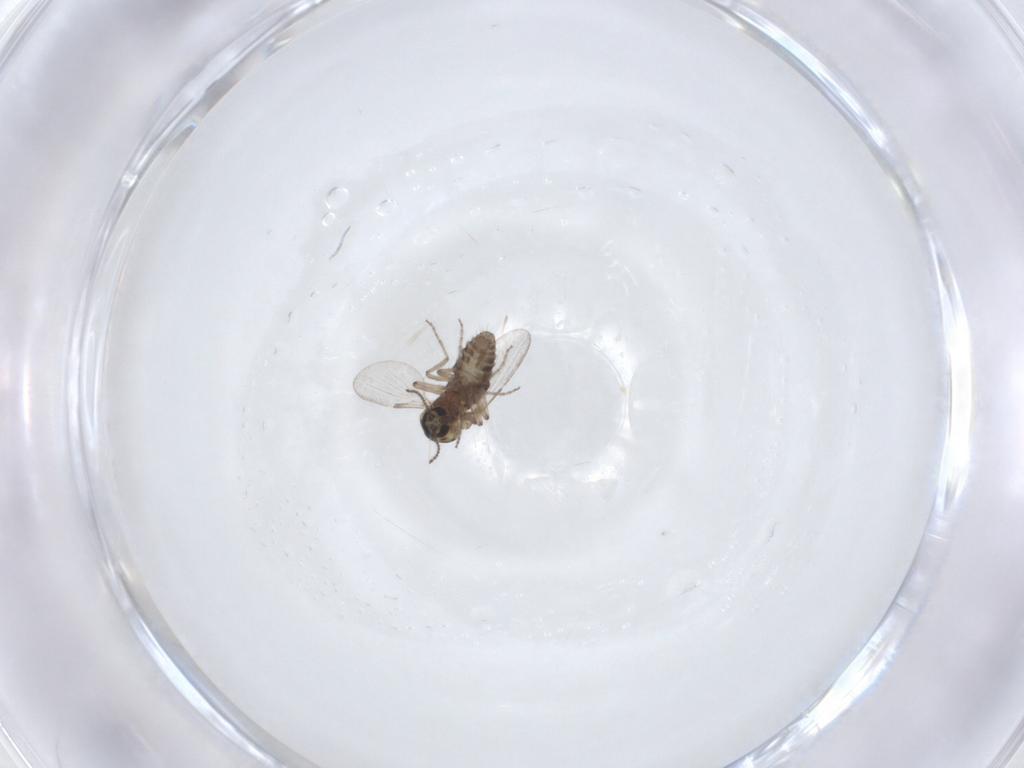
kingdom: Animalia
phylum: Arthropoda
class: Insecta
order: Diptera
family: Ceratopogonidae
